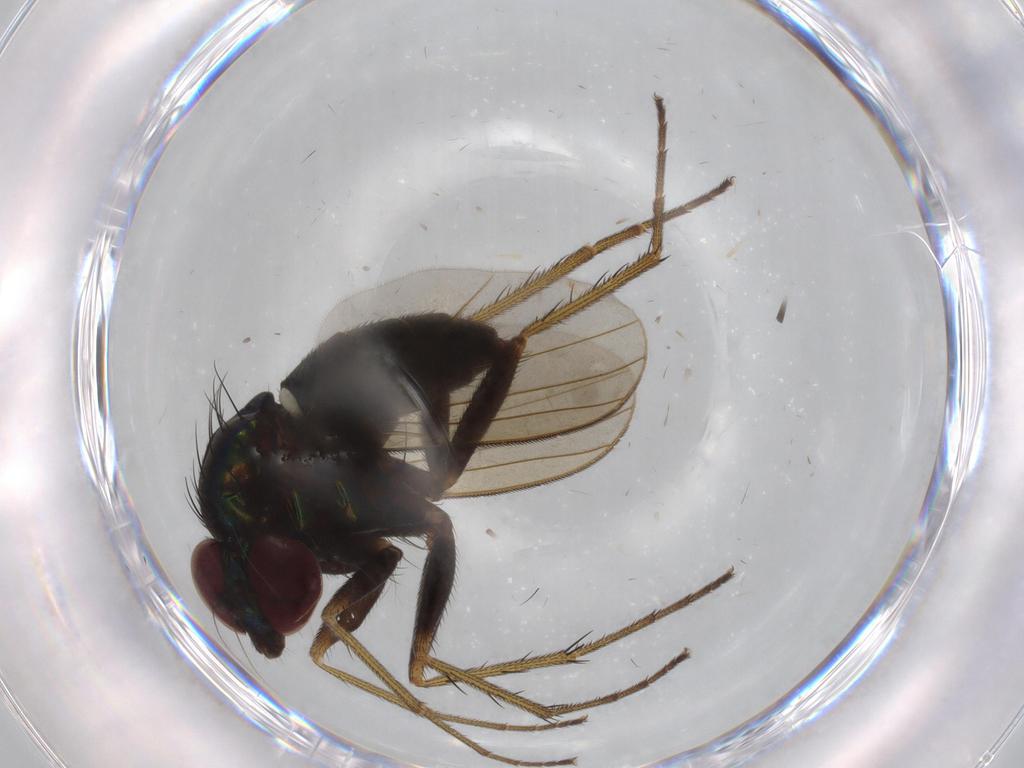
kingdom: Animalia
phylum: Arthropoda
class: Insecta
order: Diptera
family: Dolichopodidae
